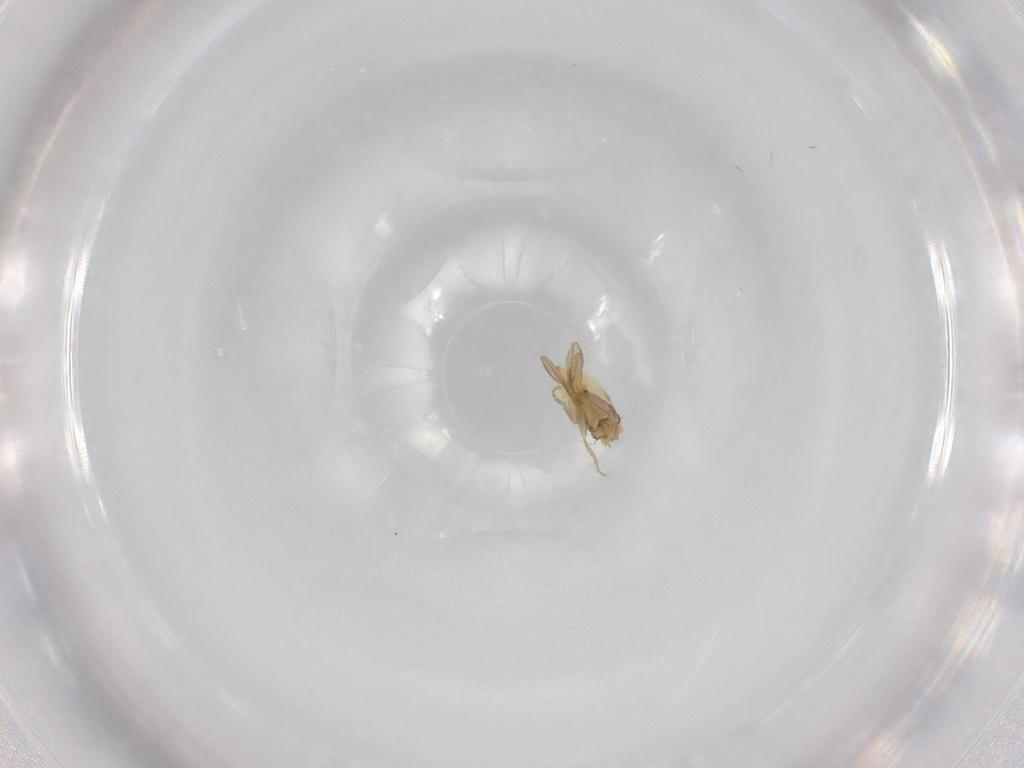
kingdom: Animalia
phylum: Arthropoda
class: Insecta
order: Diptera
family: Phoridae
